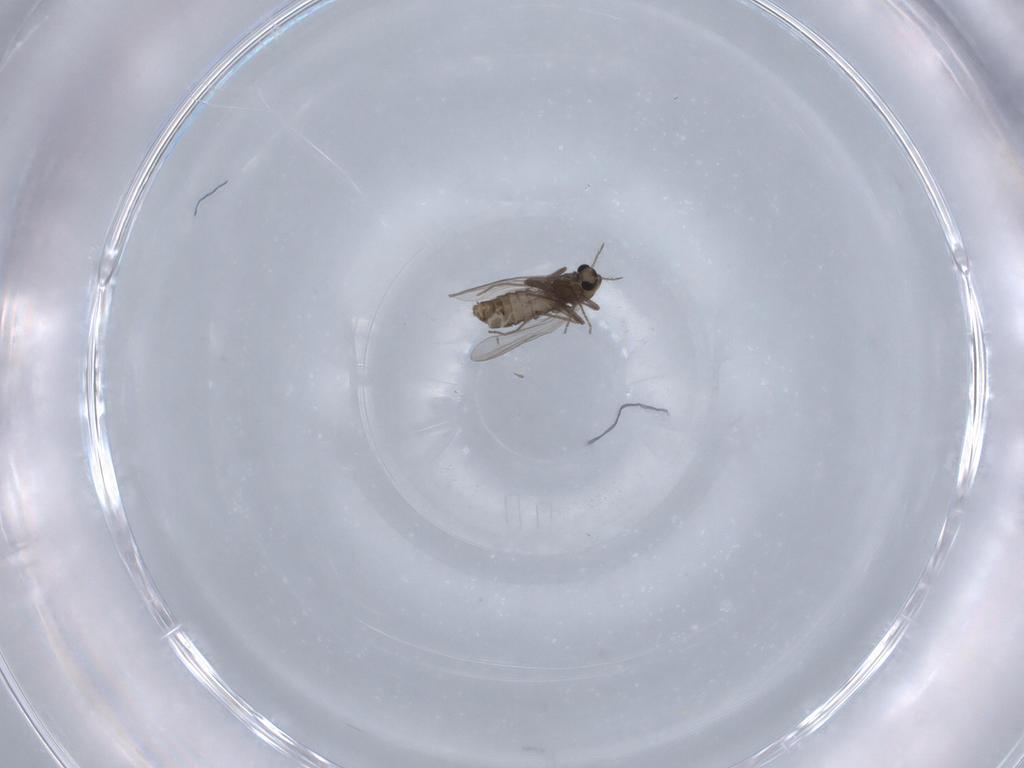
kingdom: Animalia
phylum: Arthropoda
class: Insecta
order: Diptera
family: Chironomidae
